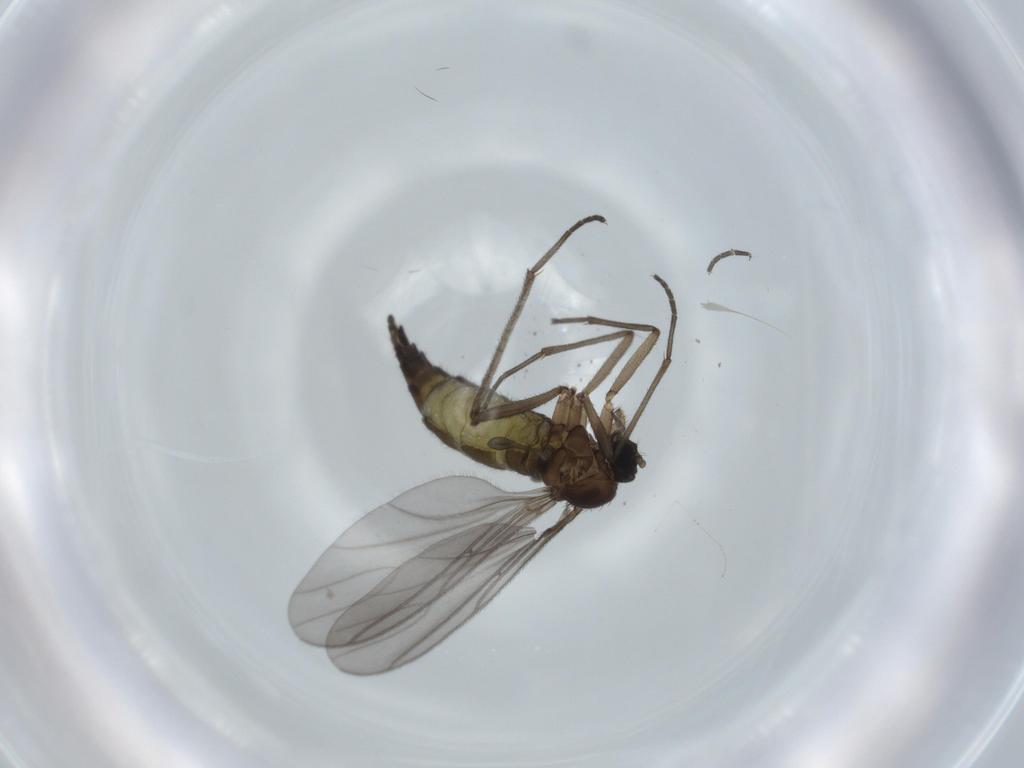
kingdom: Animalia
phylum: Arthropoda
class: Insecta
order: Diptera
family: Sciaridae
